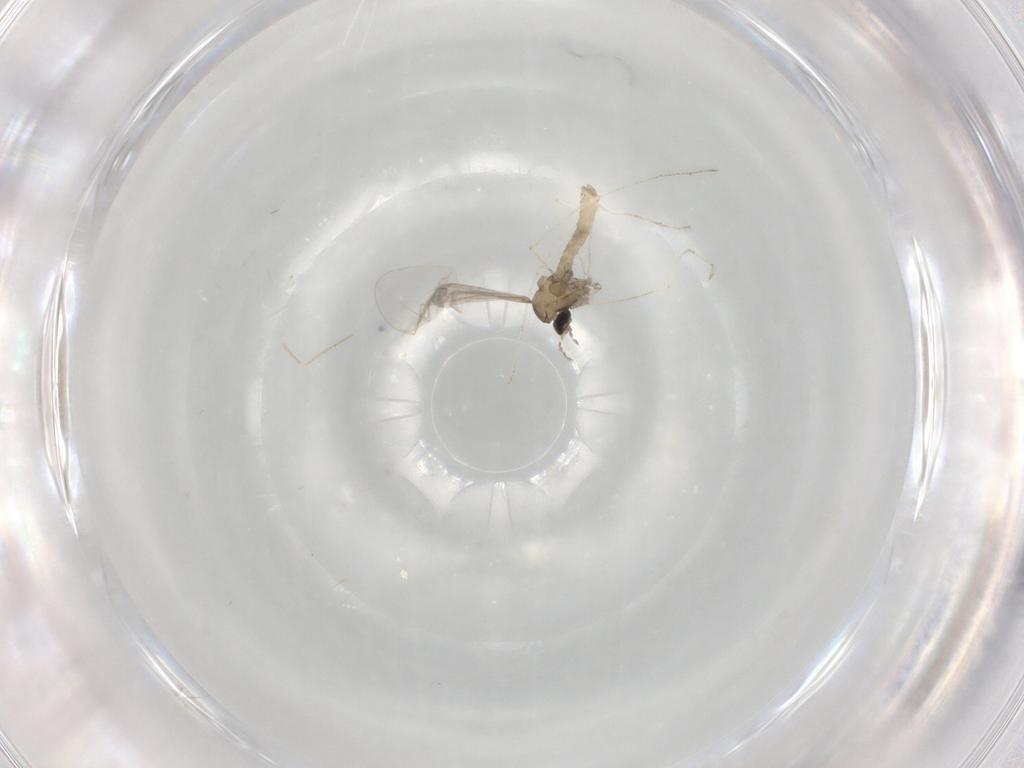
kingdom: Animalia
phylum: Arthropoda
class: Insecta
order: Diptera
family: Cecidomyiidae
